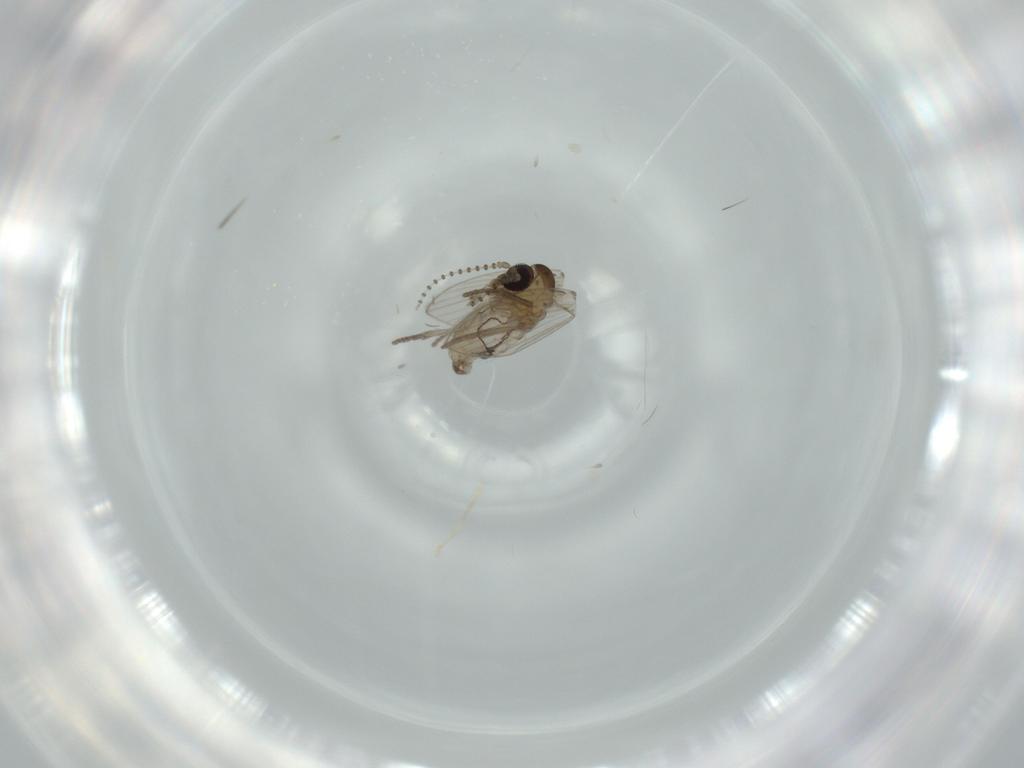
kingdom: Animalia
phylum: Arthropoda
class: Insecta
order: Diptera
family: Psychodidae
